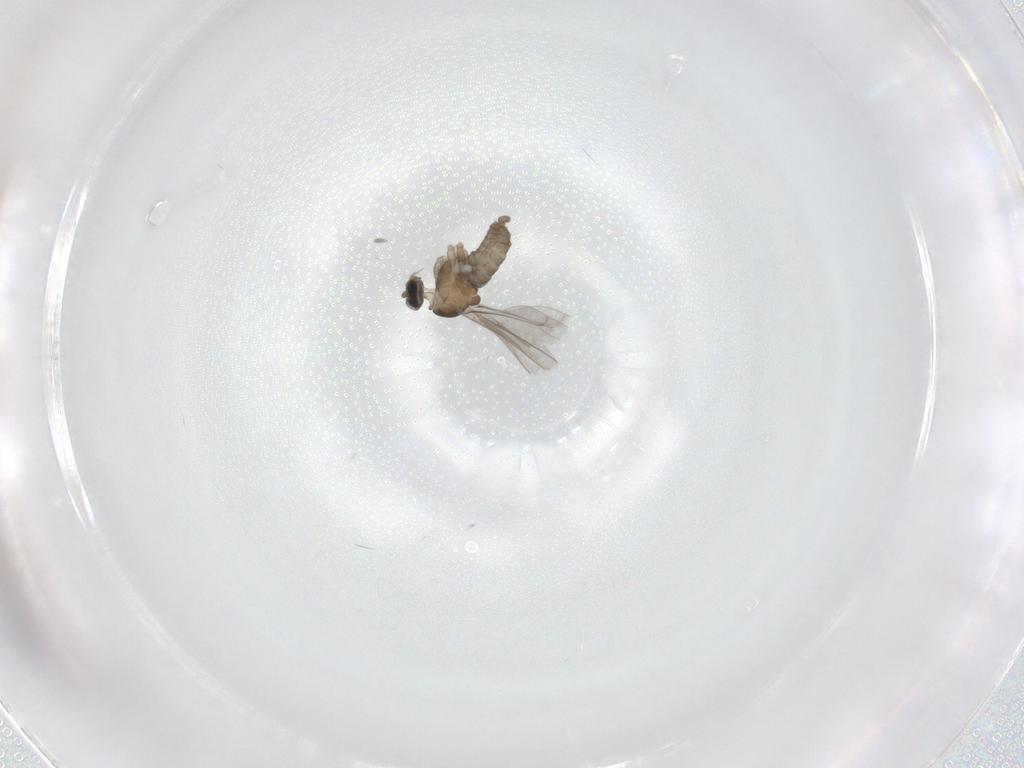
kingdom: Animalia
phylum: Arthropoda
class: Insecta
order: Diptera
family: Cecidomyiidae
